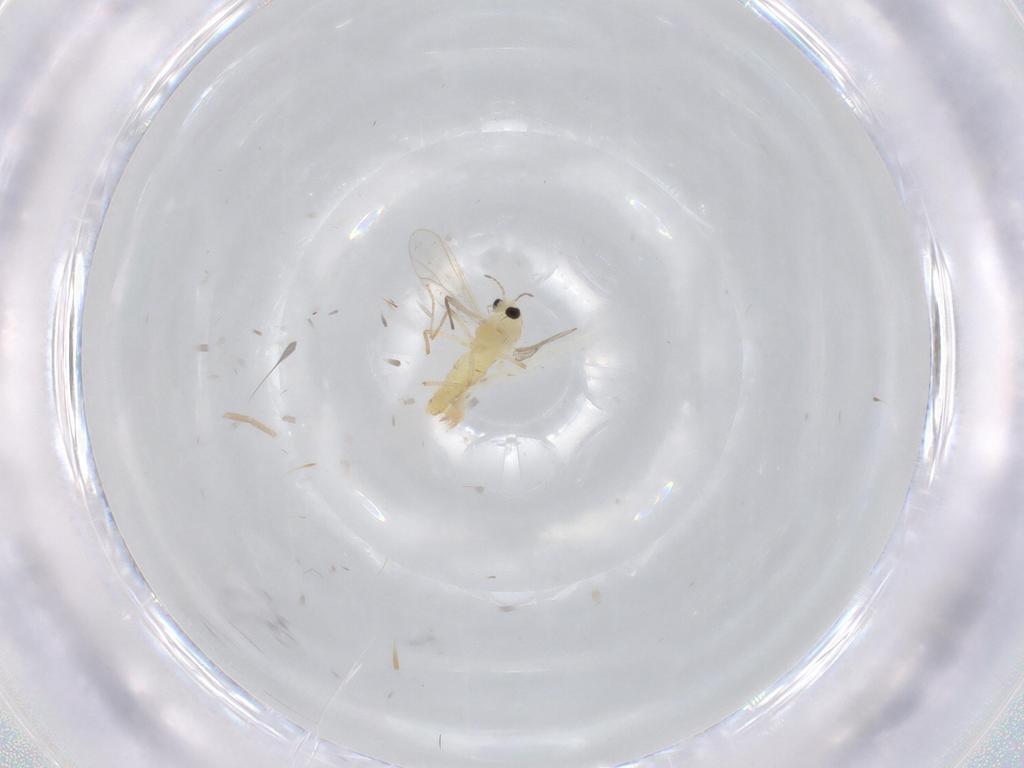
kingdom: Animalia
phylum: Arthropoda
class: Insecta
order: Diptera
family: Chironomidae
